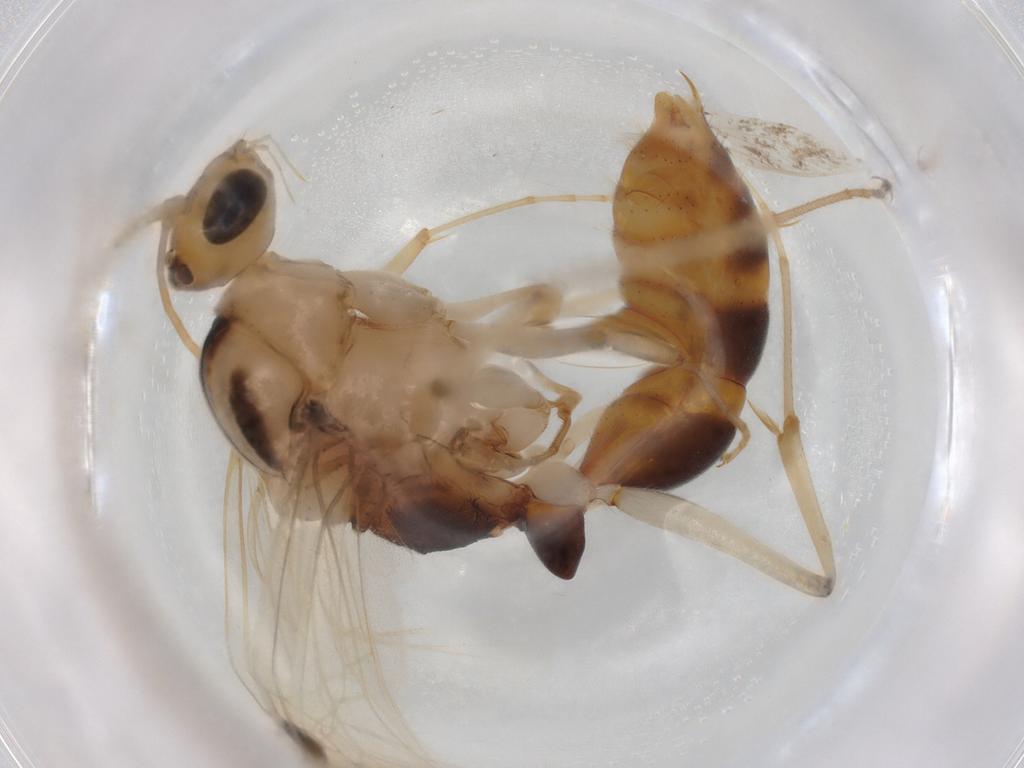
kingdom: Animalia
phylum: Arthropoda
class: Insecta
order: Hymenoptera
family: Formicidae
